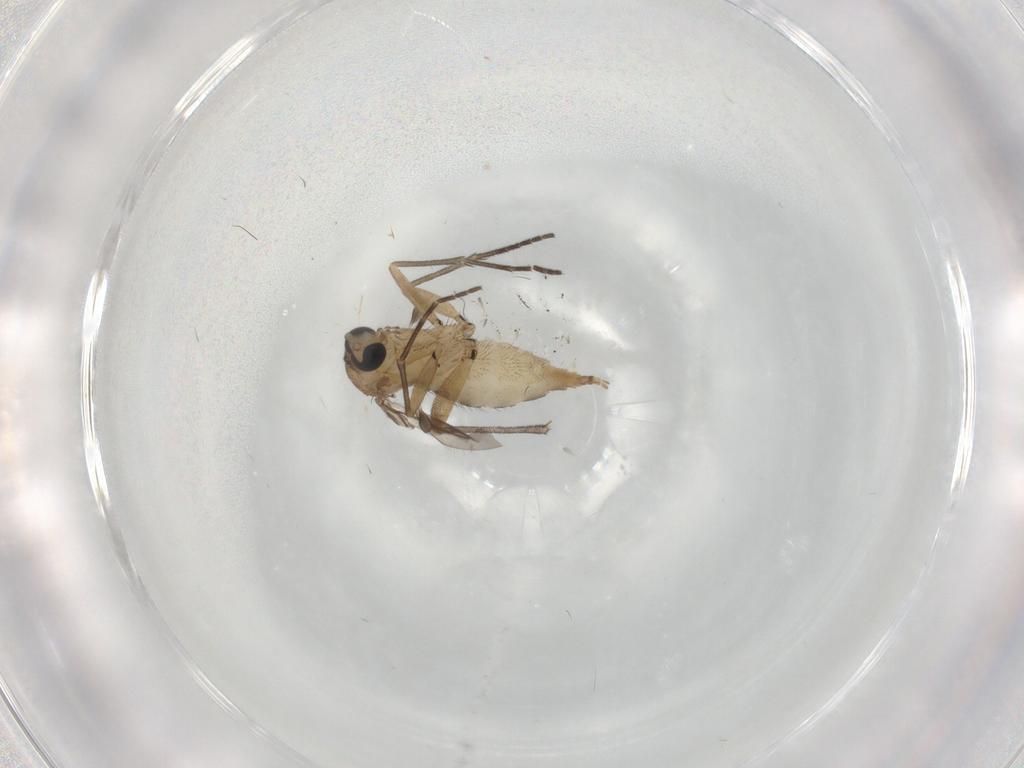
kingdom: Animalia
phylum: Arthropoda
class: Insecta
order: Diptera
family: Sciaridae
